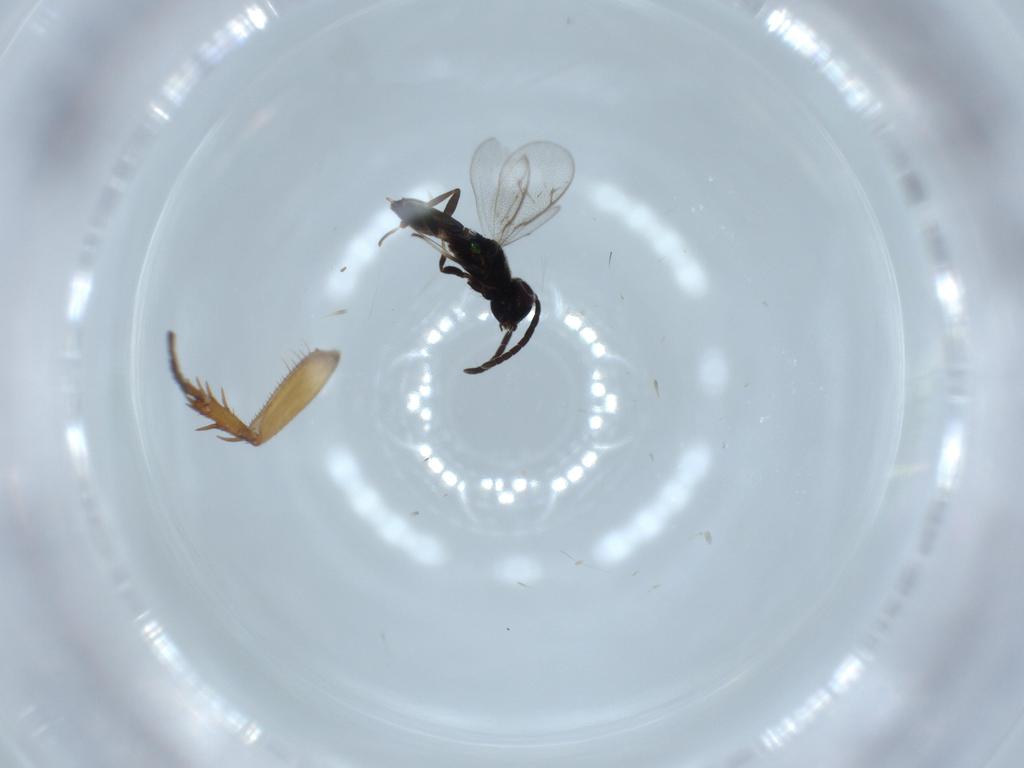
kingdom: Animalia
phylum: Arthropoda
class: Insecta
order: Hymenoptera
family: Eupelmidae
